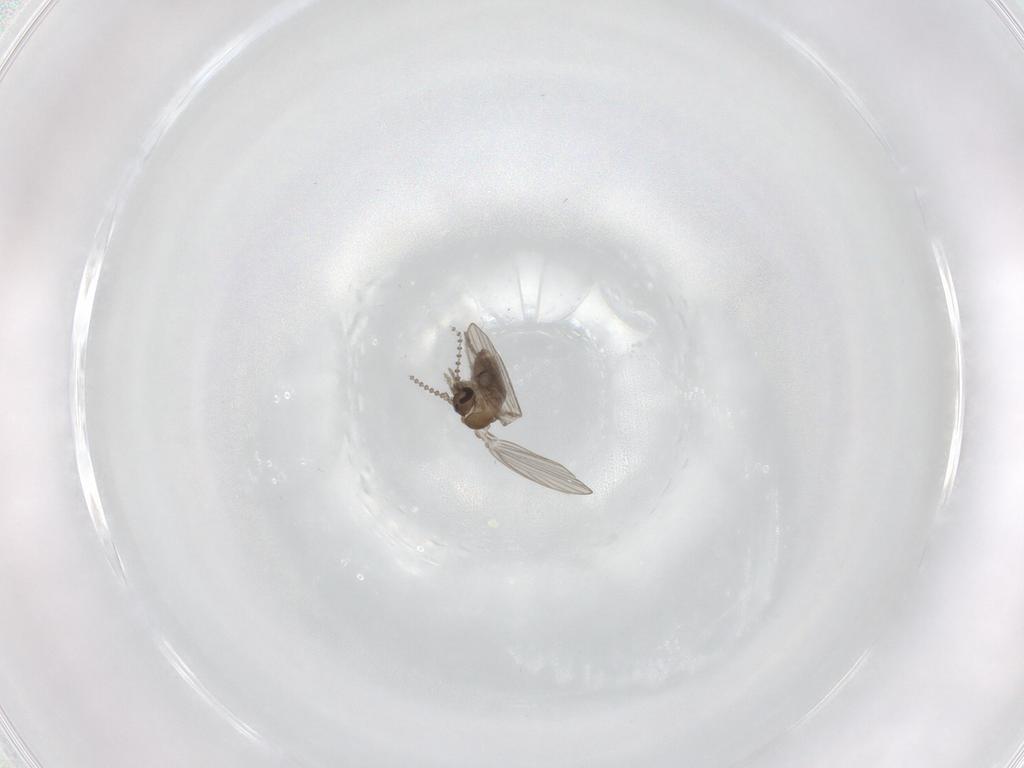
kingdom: Animalia
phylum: Arthropoda
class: Insecta
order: Diptera
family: Psychodidae
